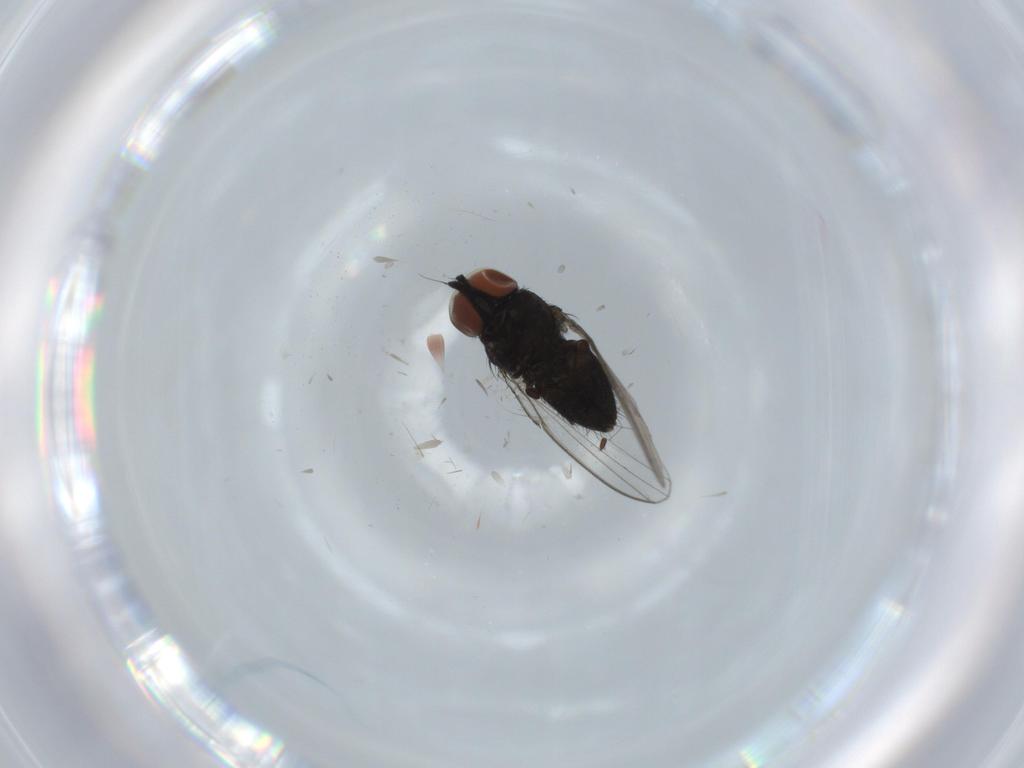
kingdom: Animalia
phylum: Arthropoda
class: Insecta
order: Diptera
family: Milichiidae
